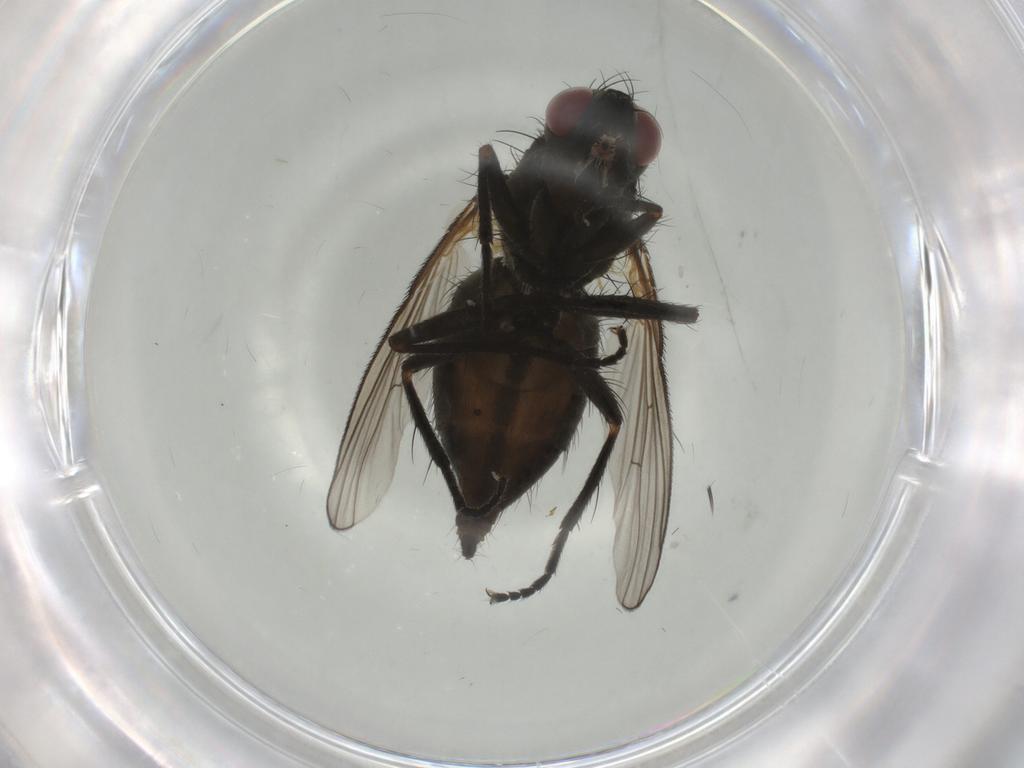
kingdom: Animalia
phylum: Arthropoda
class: Insecta
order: Diptera
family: Muscidae
